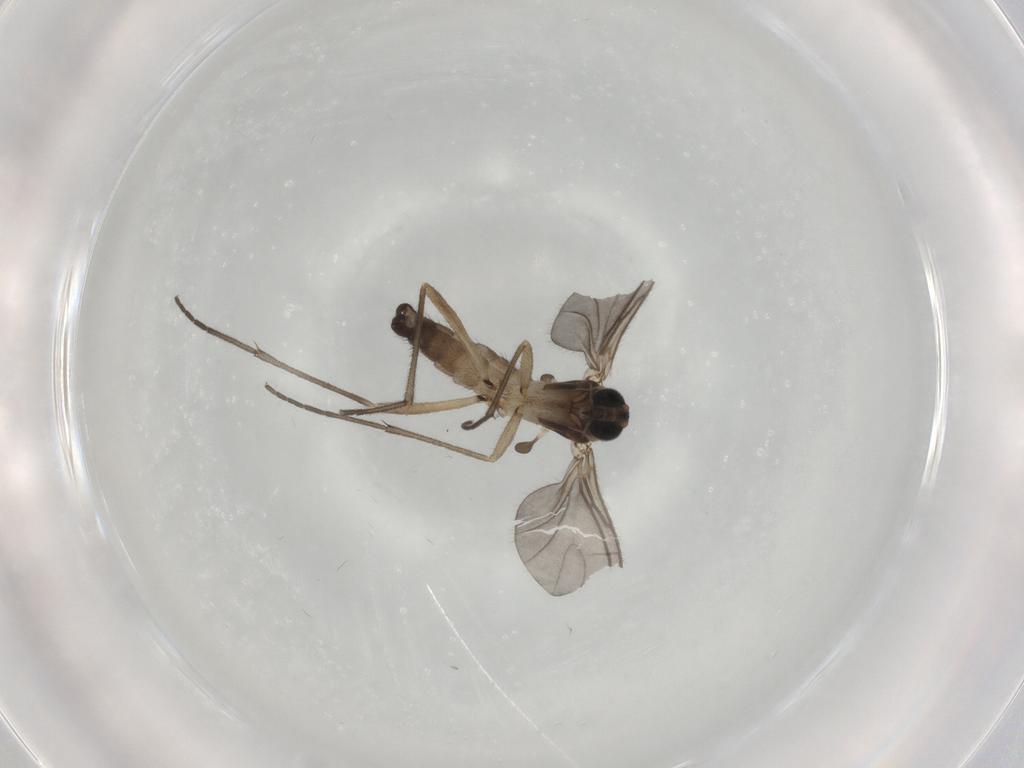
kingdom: Animalia
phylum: Arthropoda
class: Insecta
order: Diptera
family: Sciaridae
